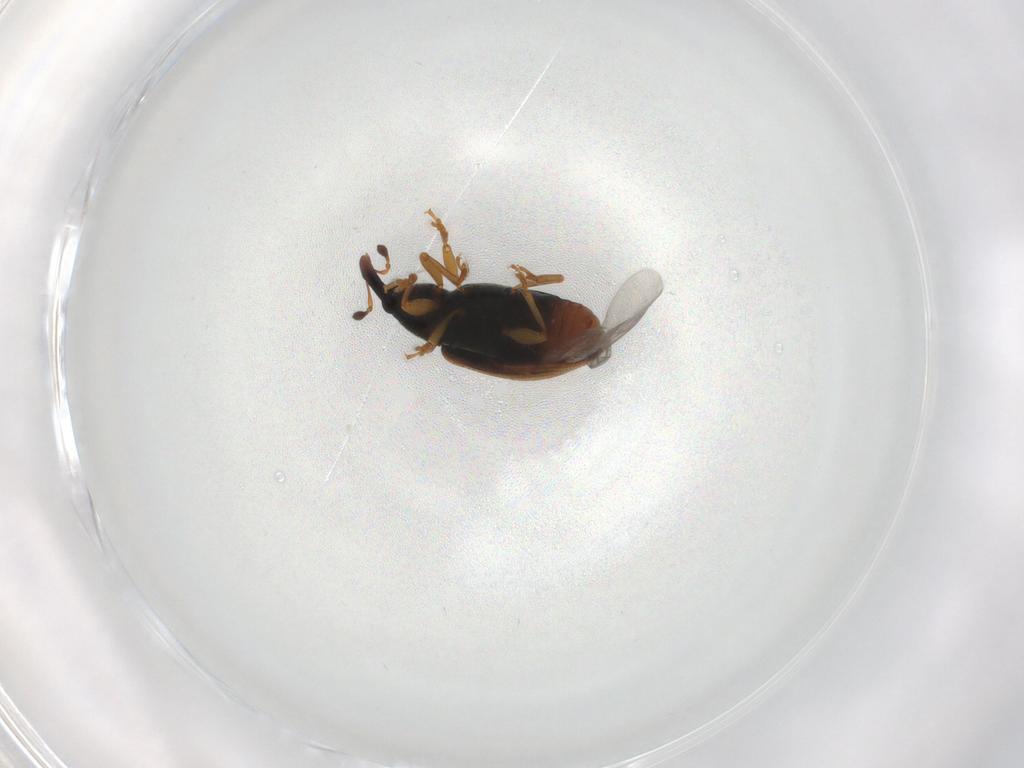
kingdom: Animalia
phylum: Arthropoda
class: Insecta
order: Coleoptera
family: Curculionidae
